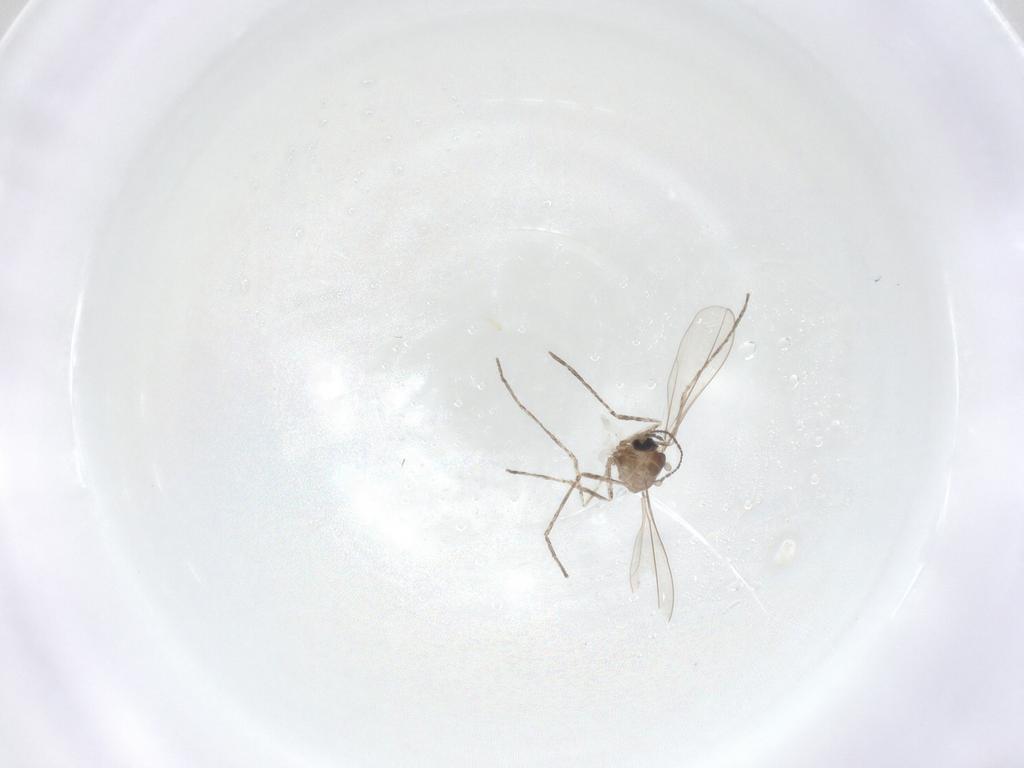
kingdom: Animalia
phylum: Arthropoda
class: Insecta
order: Diptera
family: Cecidomyiidae
